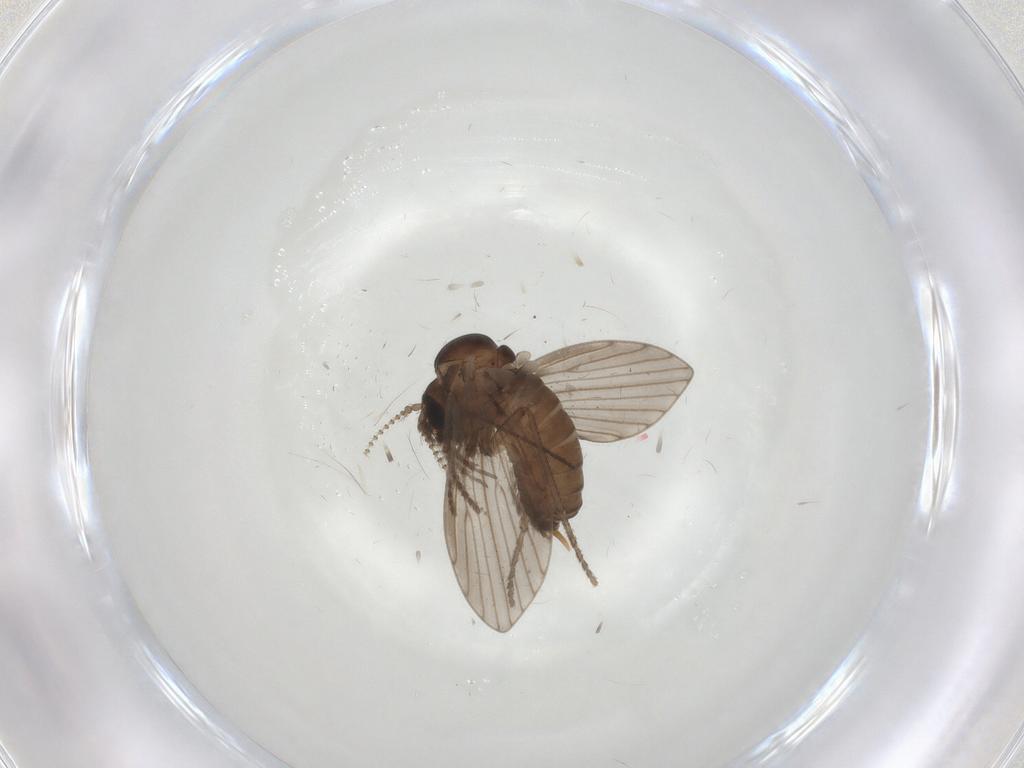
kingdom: Animalia
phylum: Arthropoda
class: Insecta
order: Diptera
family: Psychodidae
